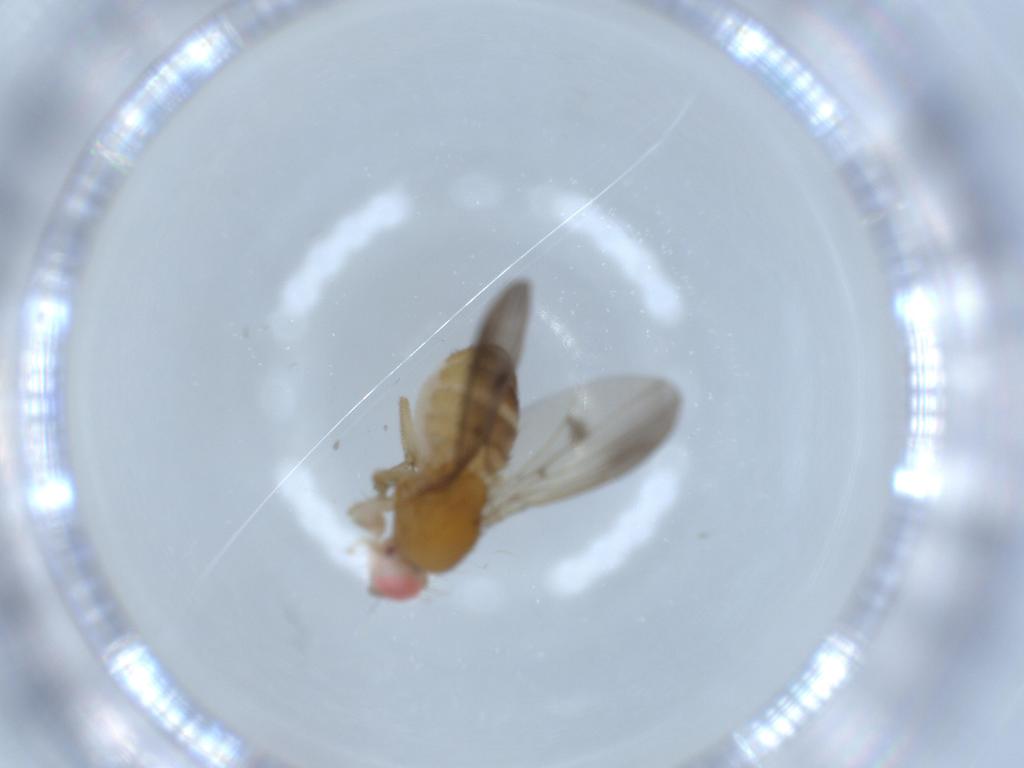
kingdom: Animalia
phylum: Arthropoda
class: Insecta
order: Diptera
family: Drosophilidae
